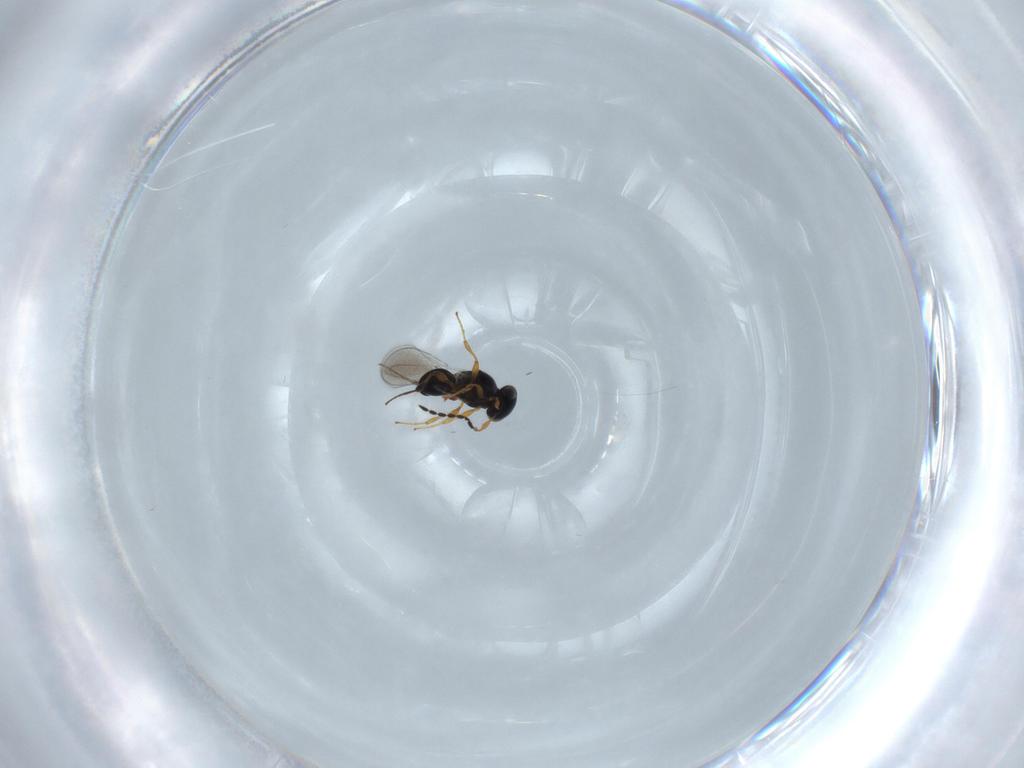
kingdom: Animalia
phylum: Arthropoda
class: Insecta
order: Hymenoptera
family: Platygastridae
